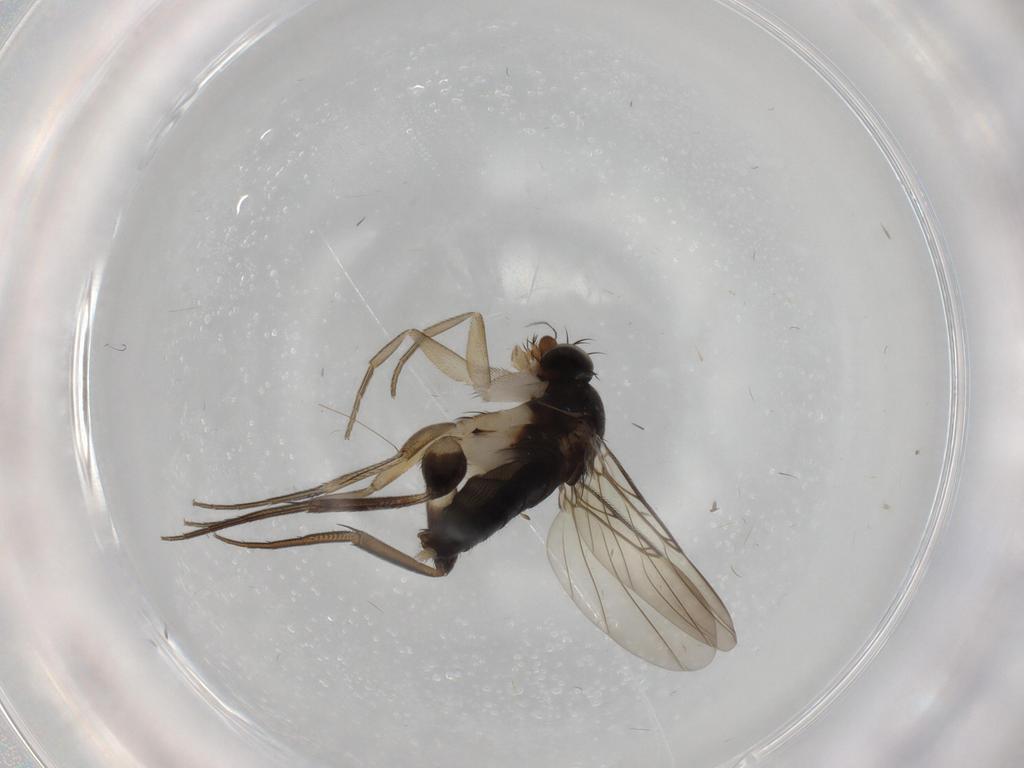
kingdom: Animalia
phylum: Arthropoda
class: Insecta
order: Diptera
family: Phoridae
